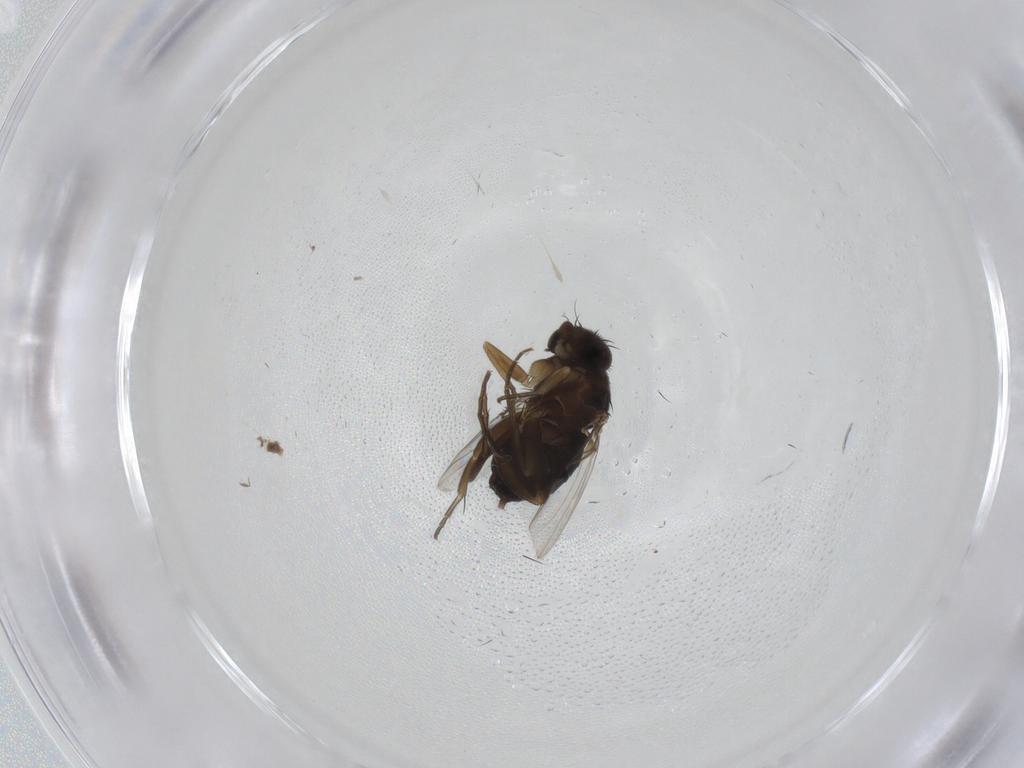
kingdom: Animalia
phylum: Arthropoda
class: Insecta
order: Diptera
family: Phoridae
